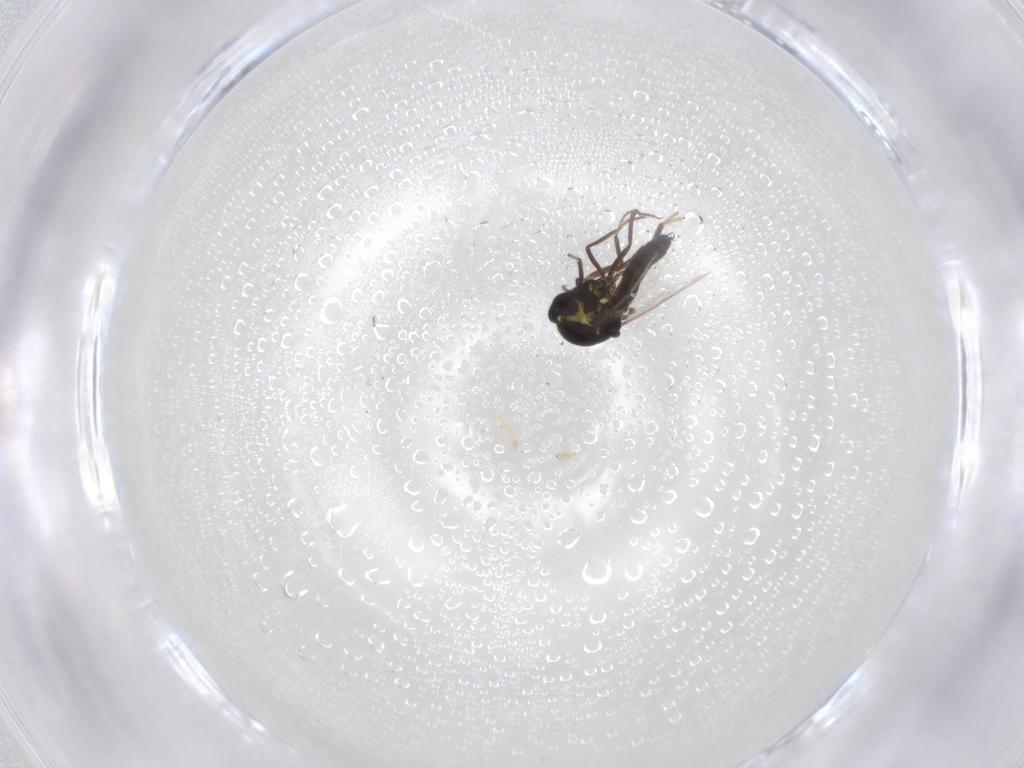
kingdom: Animalia
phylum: Arthropoda
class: Insecta
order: Diptera
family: Ceratopogonidae
